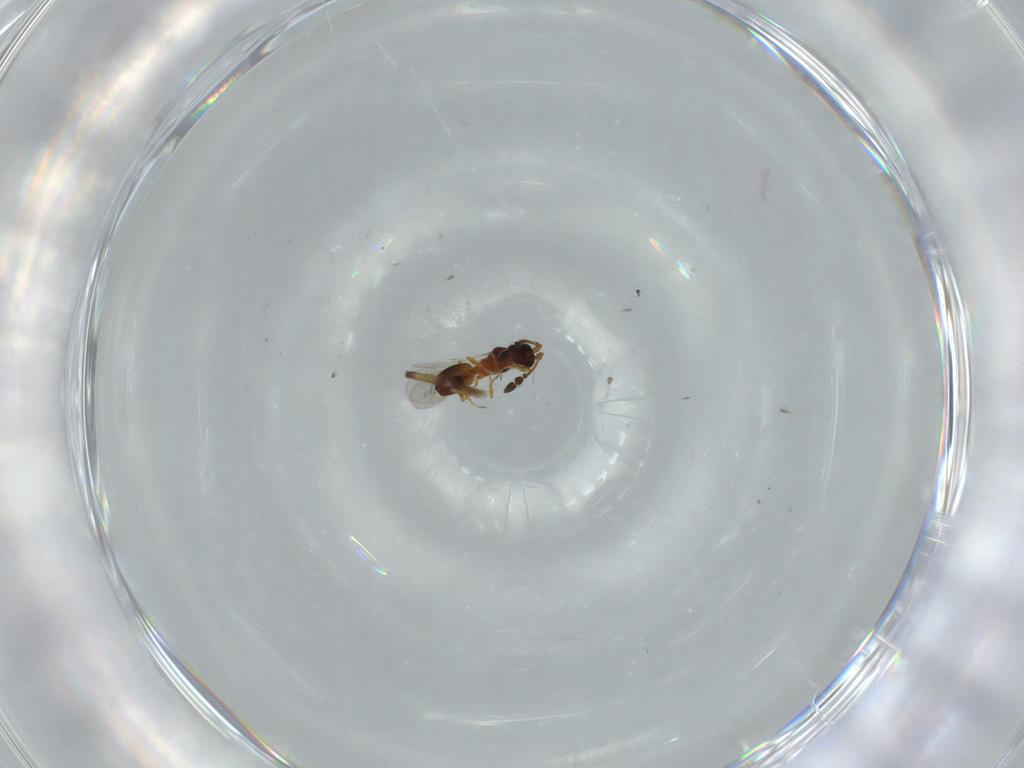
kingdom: Animalia
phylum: Arthropoda
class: Insecta
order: Hymenoptera
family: Diapriidae
